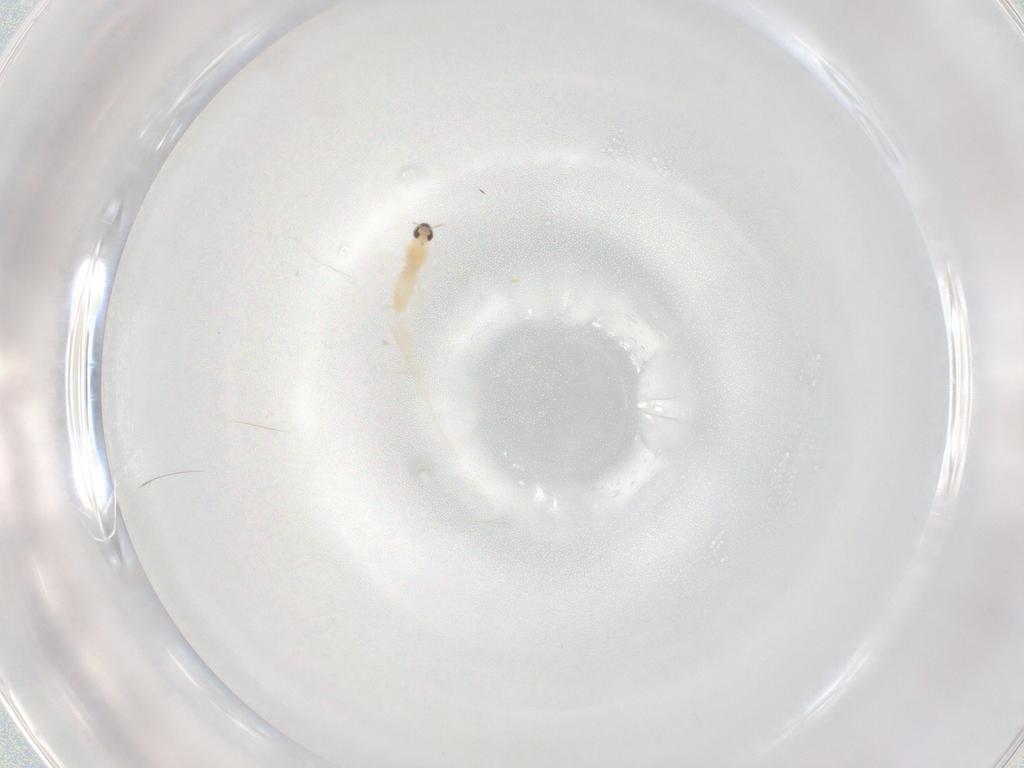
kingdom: Animalia
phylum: Arthropoda
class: Insecta
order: Diptera
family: Cecidomyiidae
